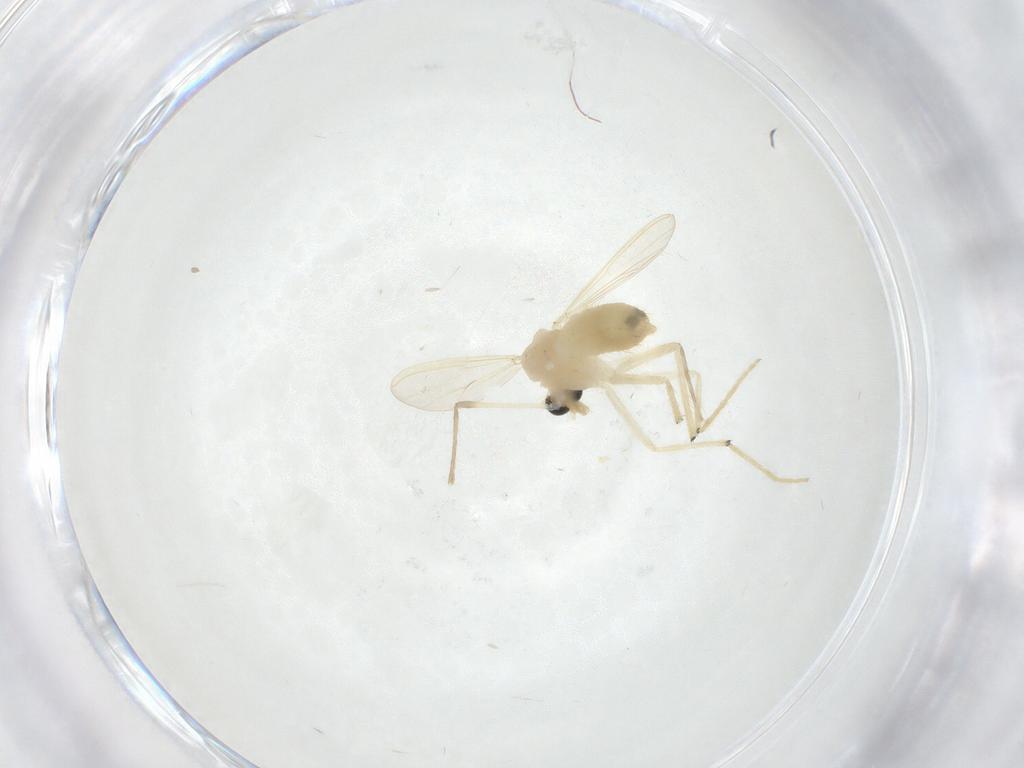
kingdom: Animalia
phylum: Arthropoda
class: Insecta
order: Diptera
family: Chironomidae
